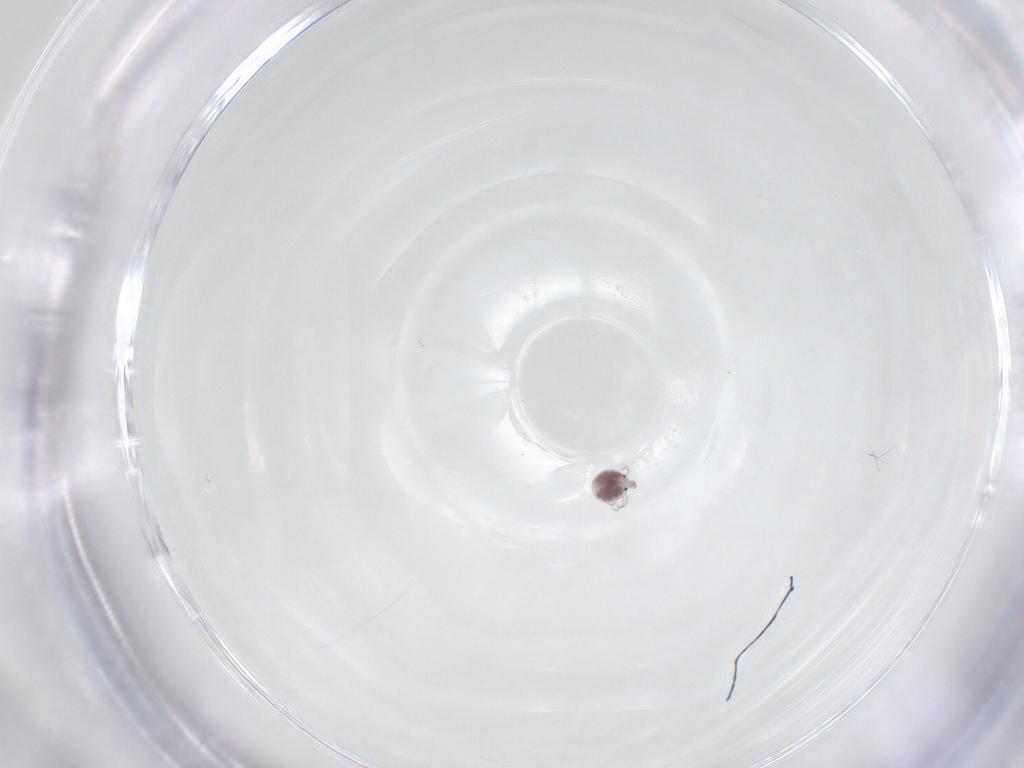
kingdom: Animalia
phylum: Arthropoda
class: Arachnida
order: Trombidiformes
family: Pionidae
